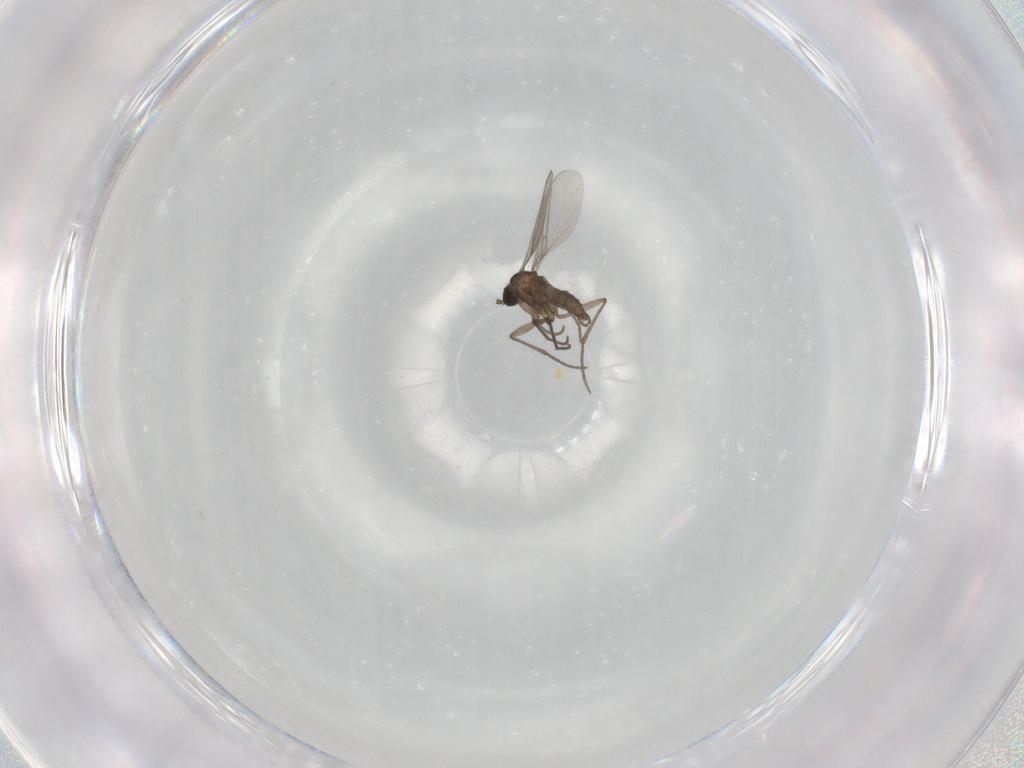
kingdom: Animalia
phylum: Arthropoda
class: Insecta
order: Diptera
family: Sciaridae
